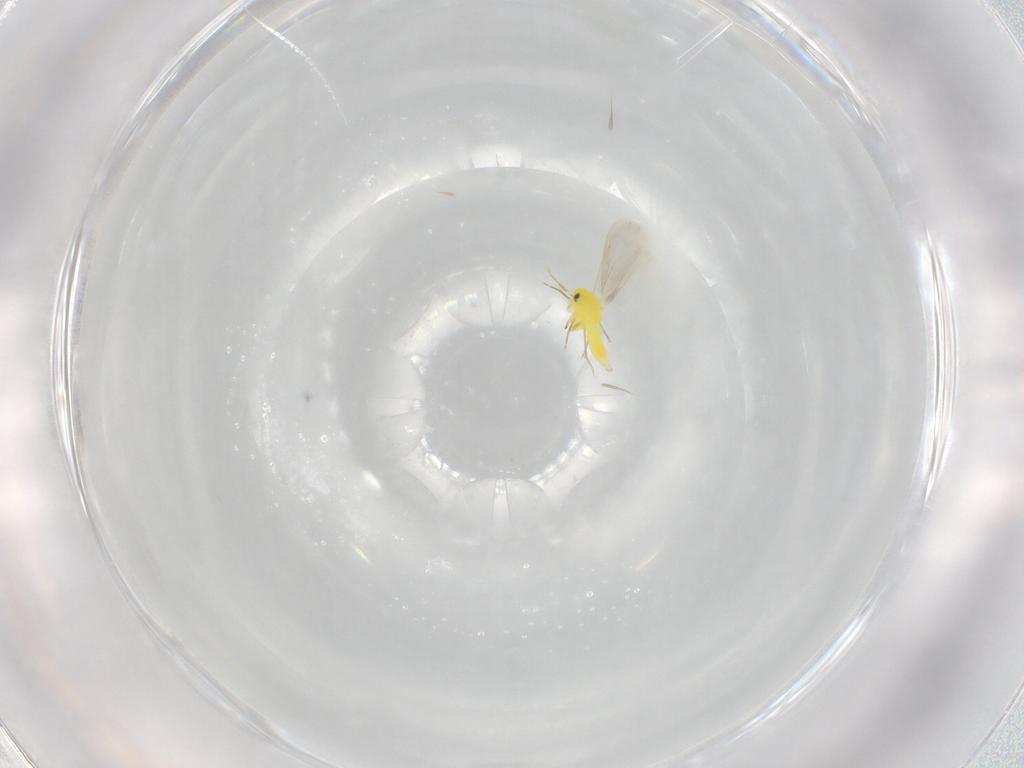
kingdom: Animalia
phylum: Arthropoda
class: Insecta
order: Hemiptera
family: Aleyrodidae
